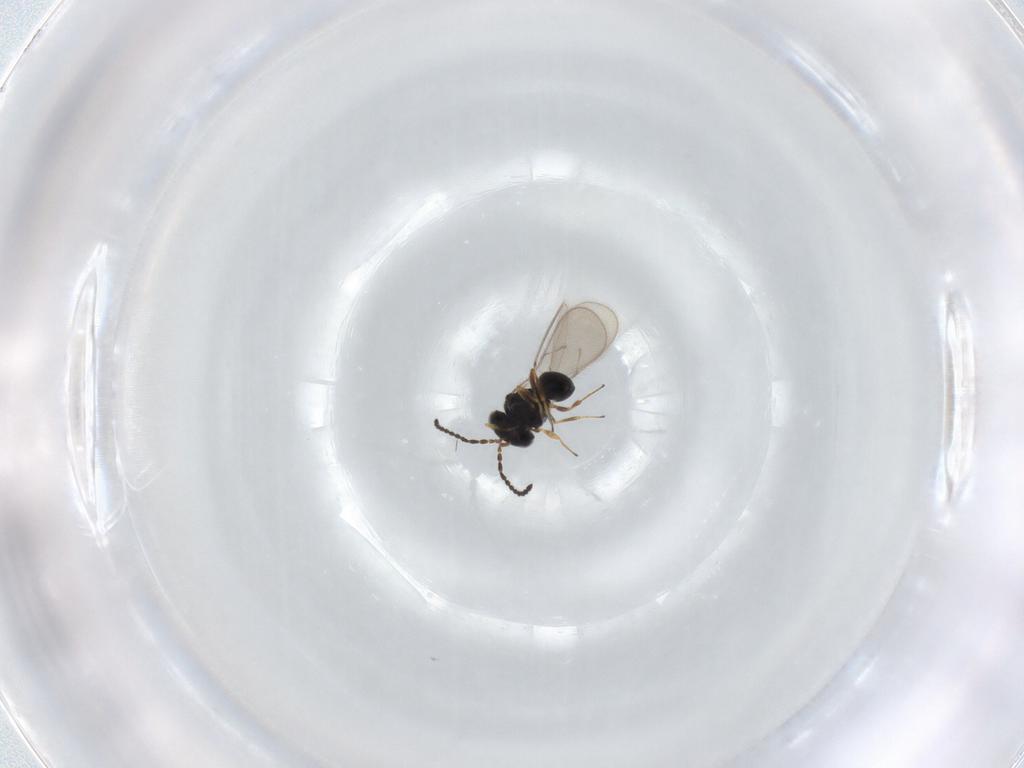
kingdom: Animalia
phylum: Arthropoda
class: Insecta
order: Hymenoptera
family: Scelionidae
